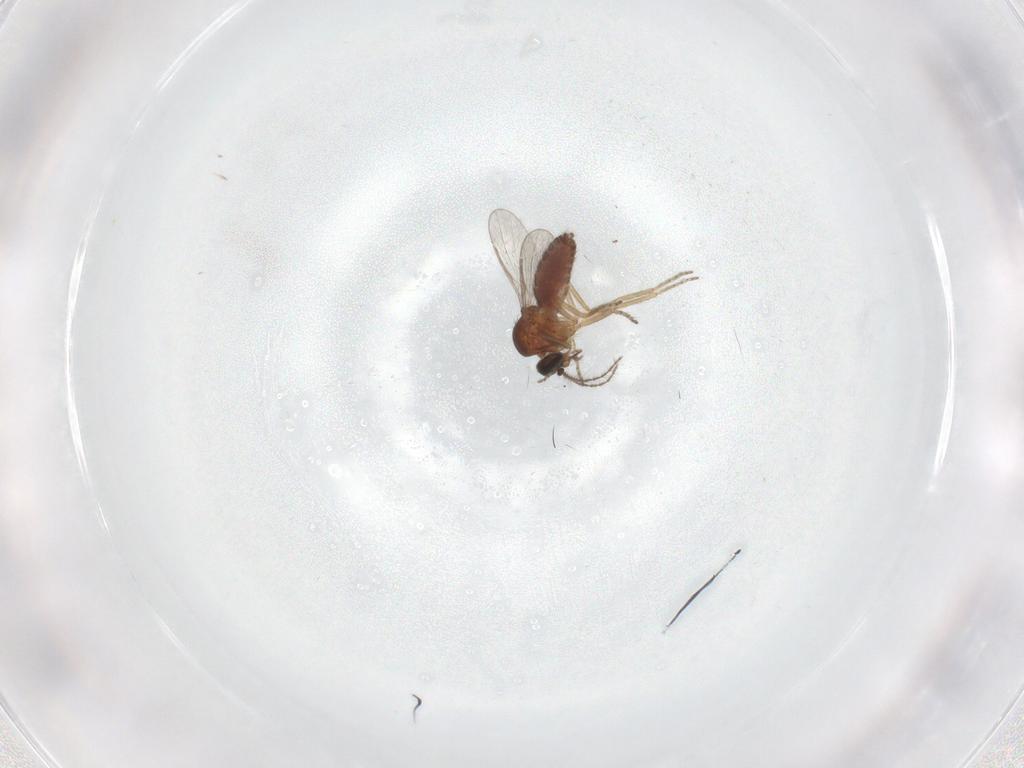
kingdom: Animalia
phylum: Arthropoda
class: Insecta
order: Diptera
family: Ceratopogonidae
